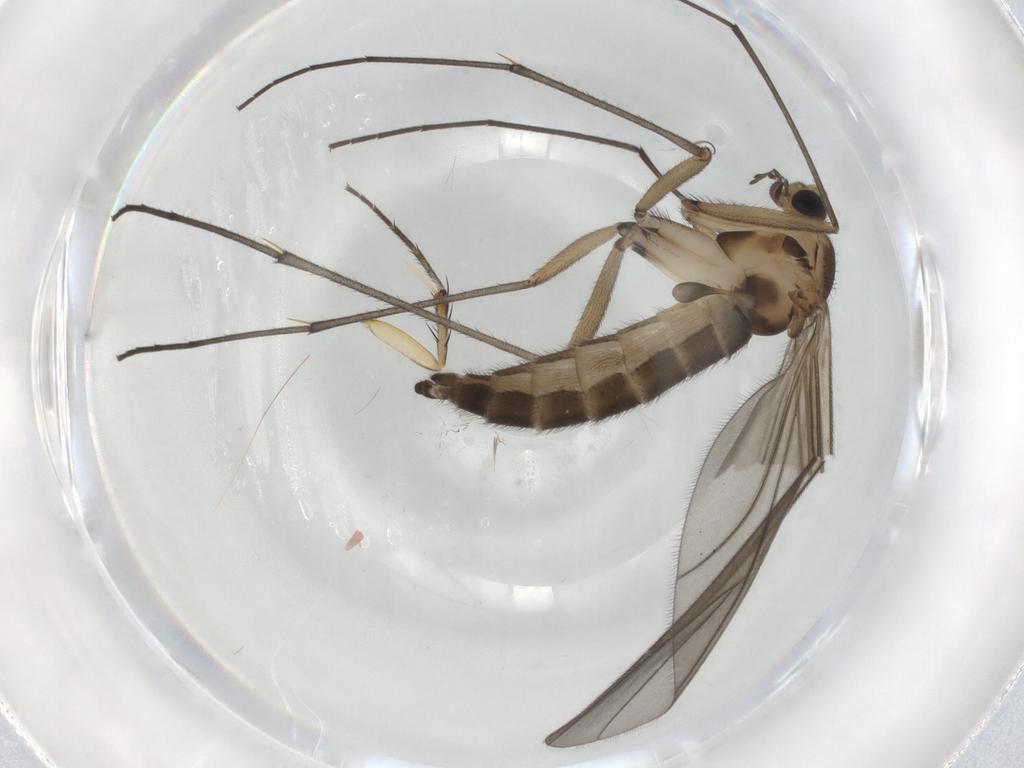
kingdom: Animalia
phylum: Arthropoda
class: Insecta
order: Diptera
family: Sciaridae
